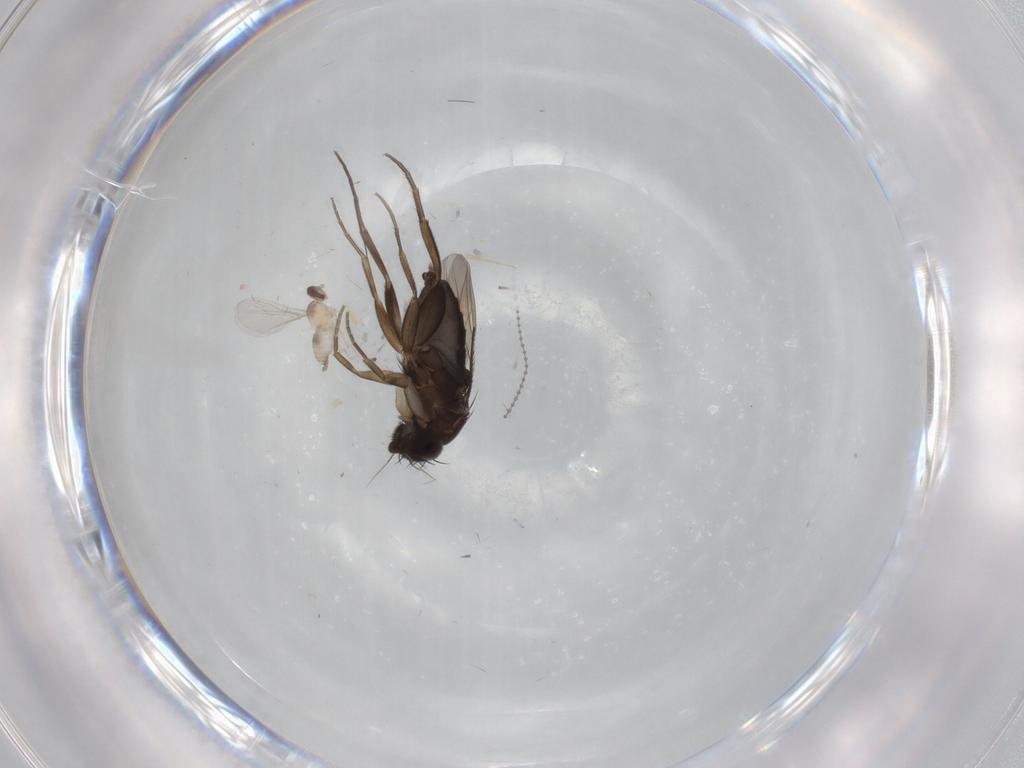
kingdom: Animalia
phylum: Arthropoda
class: Insecta
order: Diptera
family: Cecidomyiidae
